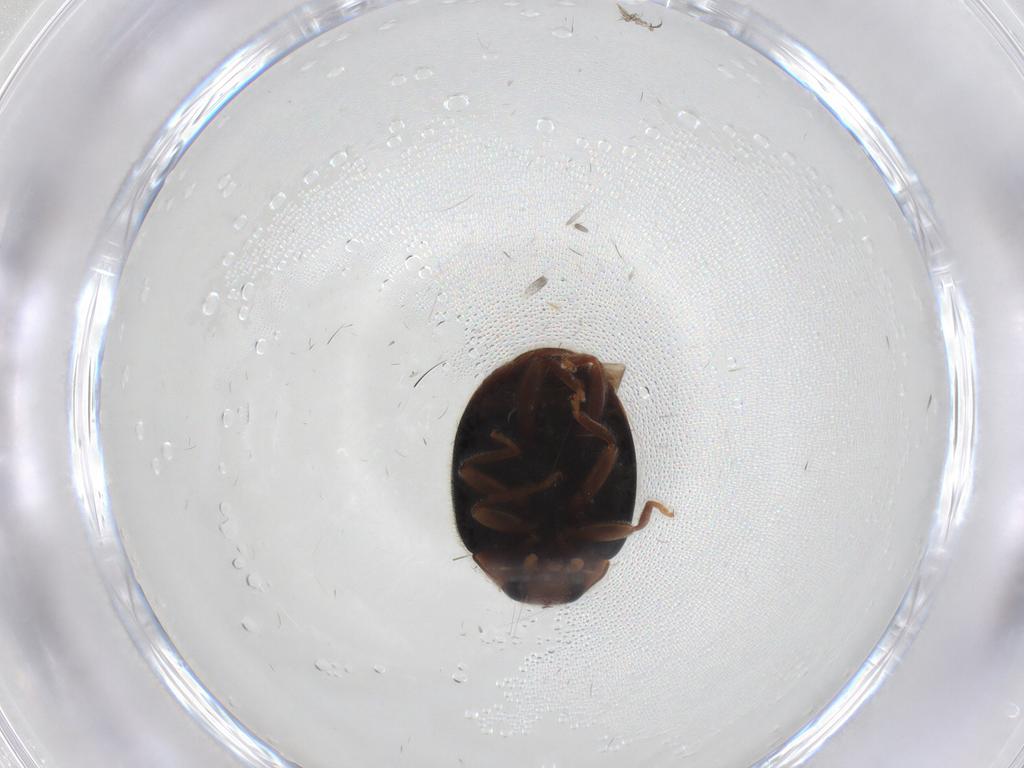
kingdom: Animalia
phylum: Arthropoda
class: Insecta
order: Coleoptera
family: Coccinellidae
